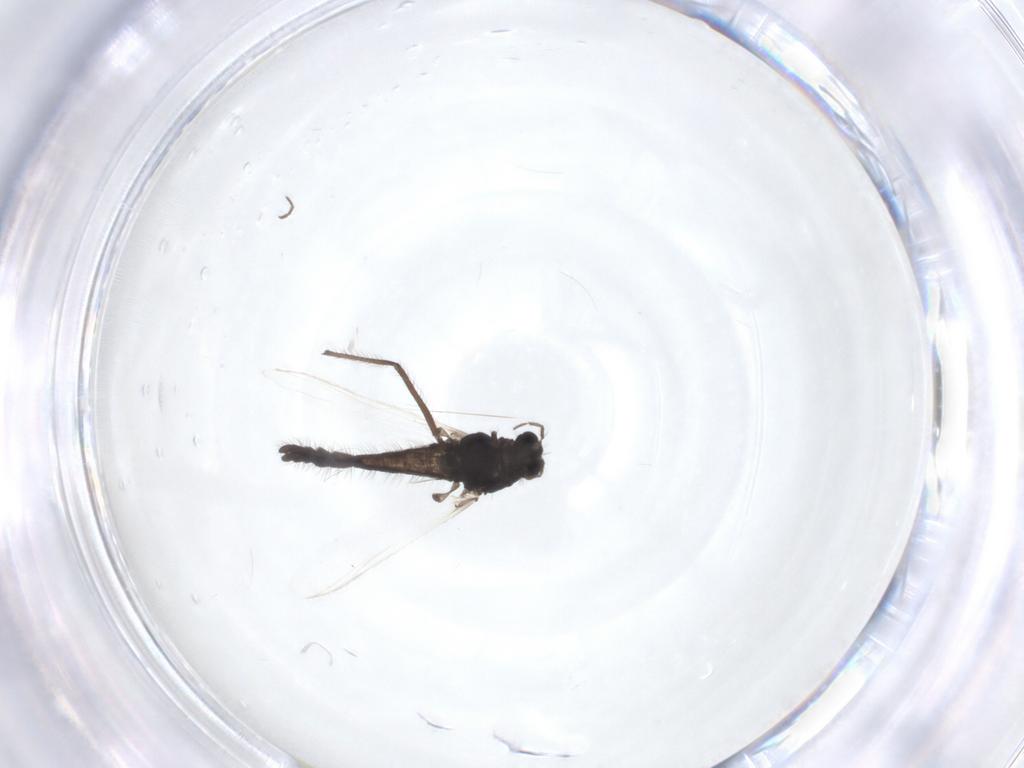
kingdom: Animalia
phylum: Arthropoda
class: Insecta
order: Diptera
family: Chironomidae
